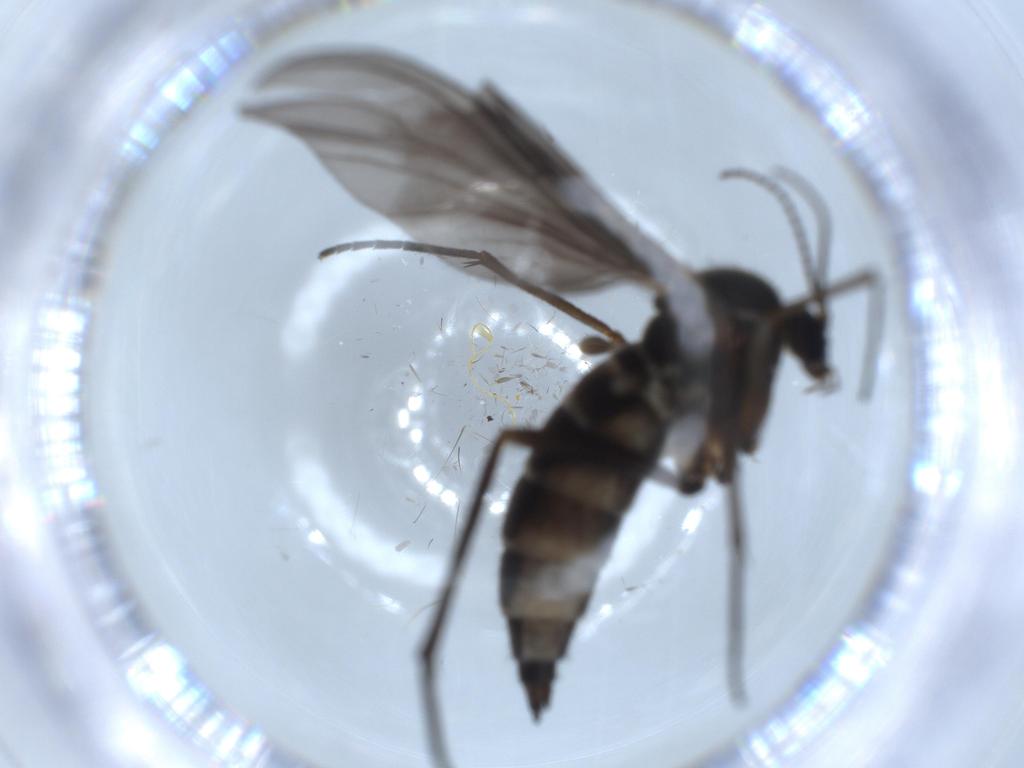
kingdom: Animalia
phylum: Arthropoda
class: Insecta
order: Diptera
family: Sciaridae
